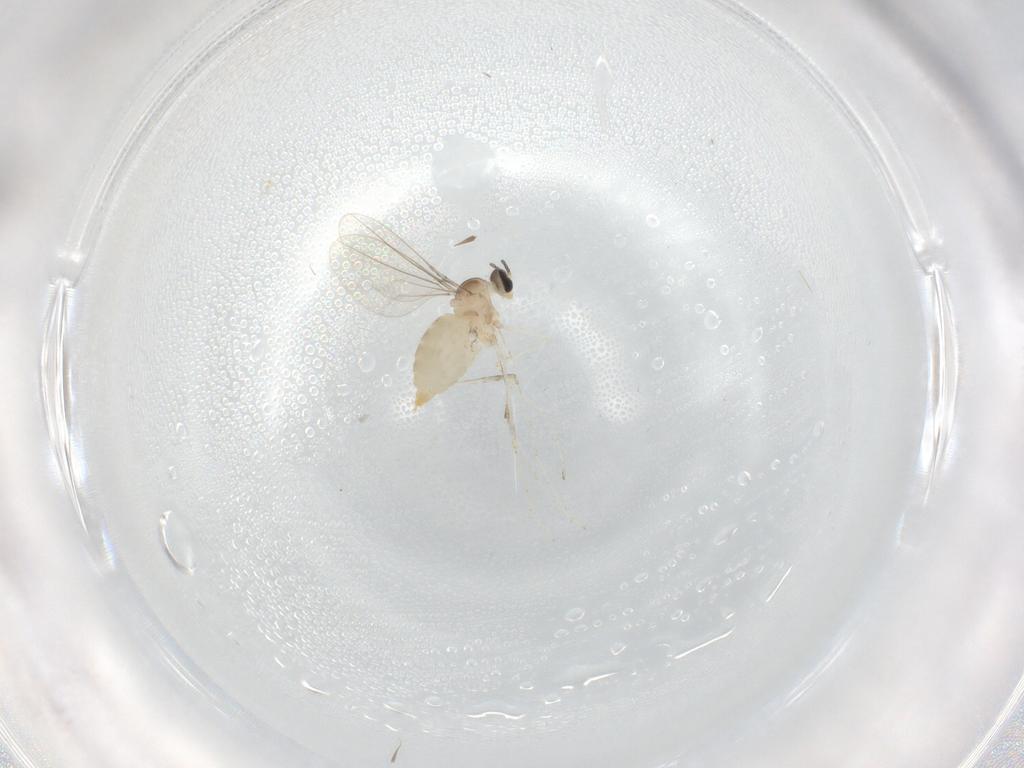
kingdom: Animalia
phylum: Arthropoda
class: Insecta
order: Diptera
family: Cecidomyiidae
